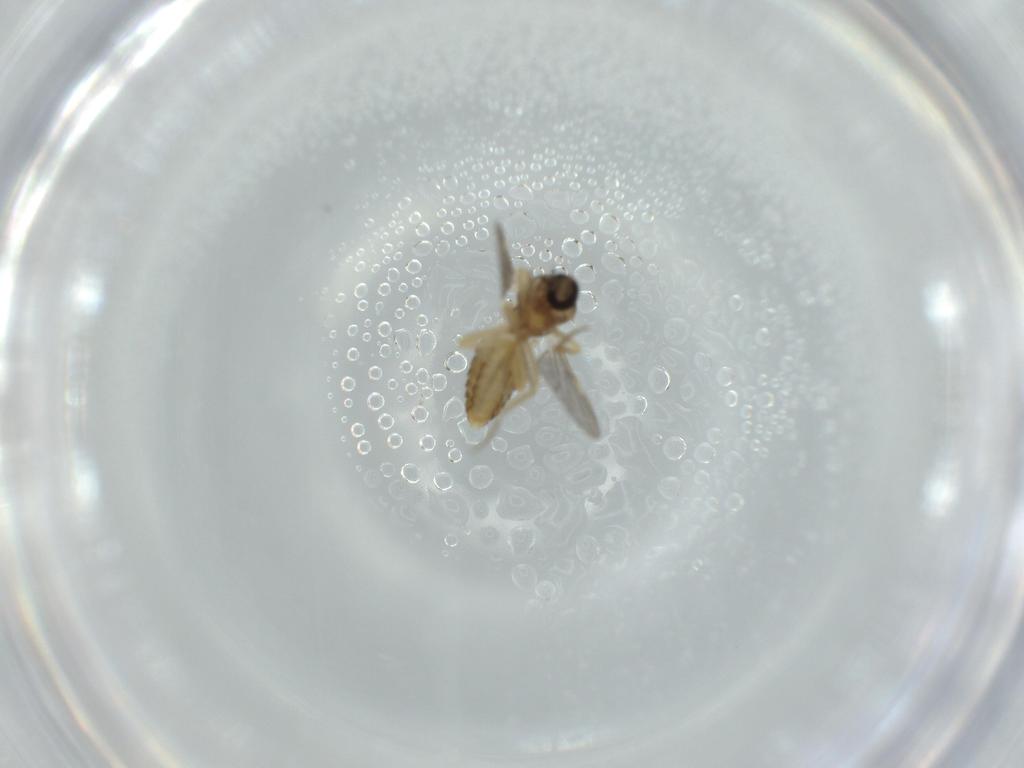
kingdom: Animalia
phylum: Arthropoda
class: Insecta
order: Diptera
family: Ceratopogonidae
